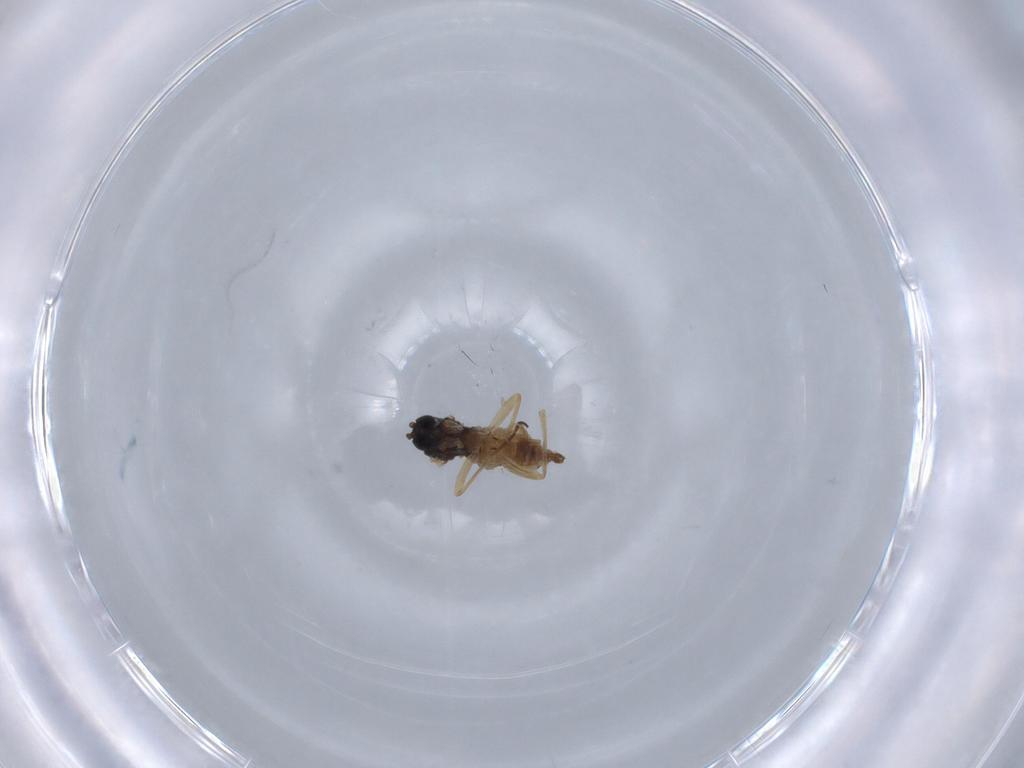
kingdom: Animalia
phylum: Arthropoda
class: Insecta
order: Diptera
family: Sciaridae
